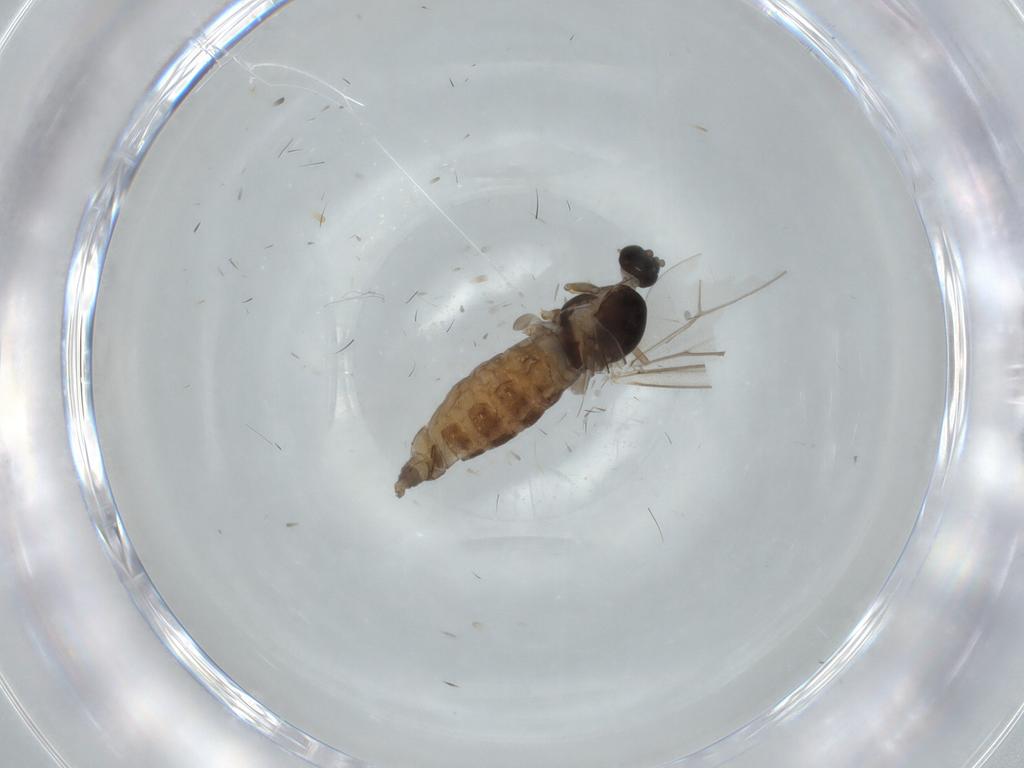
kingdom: Animalia
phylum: Arthropoda
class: Insecta
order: Diptera
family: Cecidomyiidae
